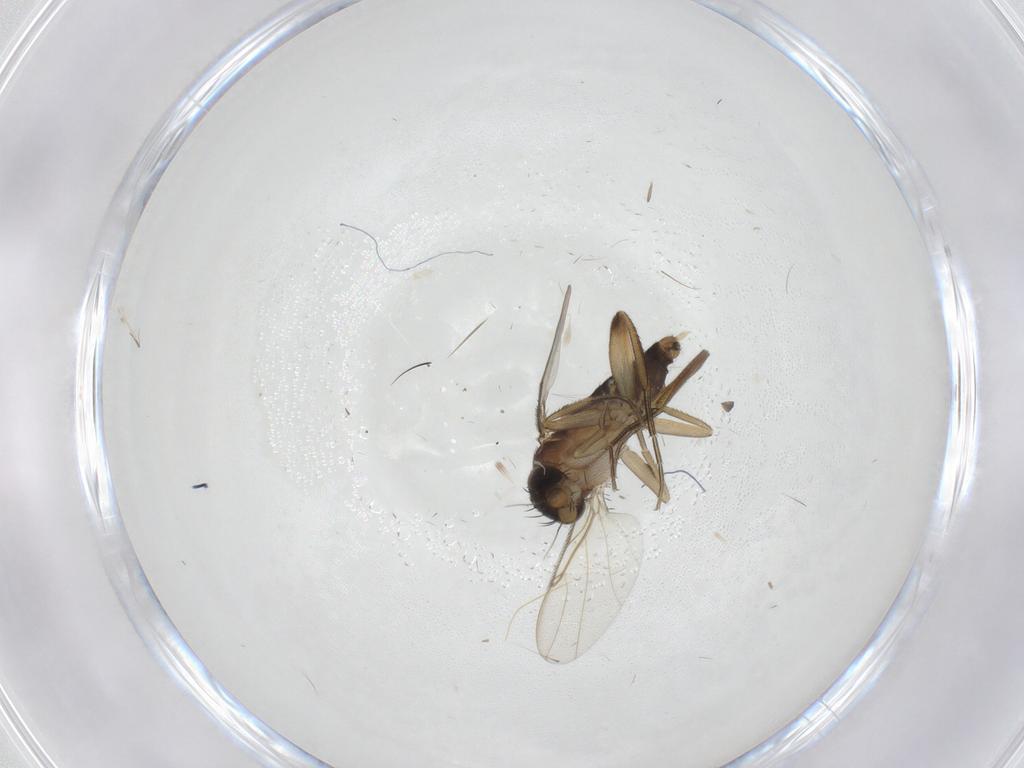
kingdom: Animalia
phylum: Arthropoda
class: Insecta
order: Diptera
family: Phoridae
